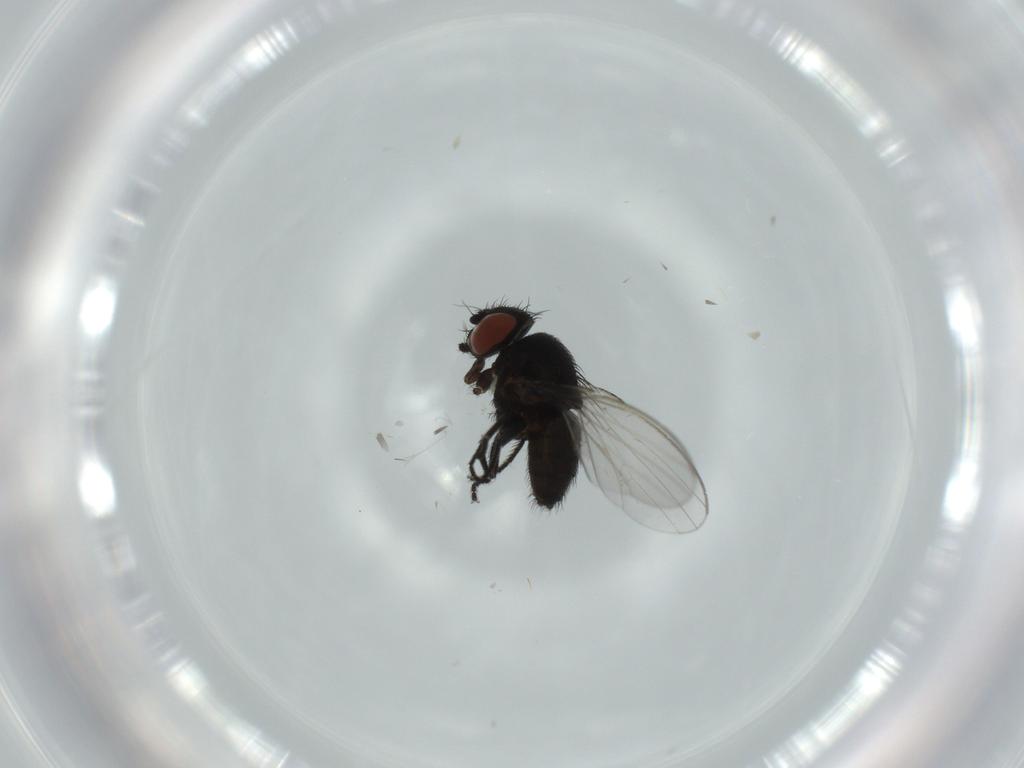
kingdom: Animalia
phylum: Arthropoda
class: Insecta
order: Diptera
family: Milichiidae
